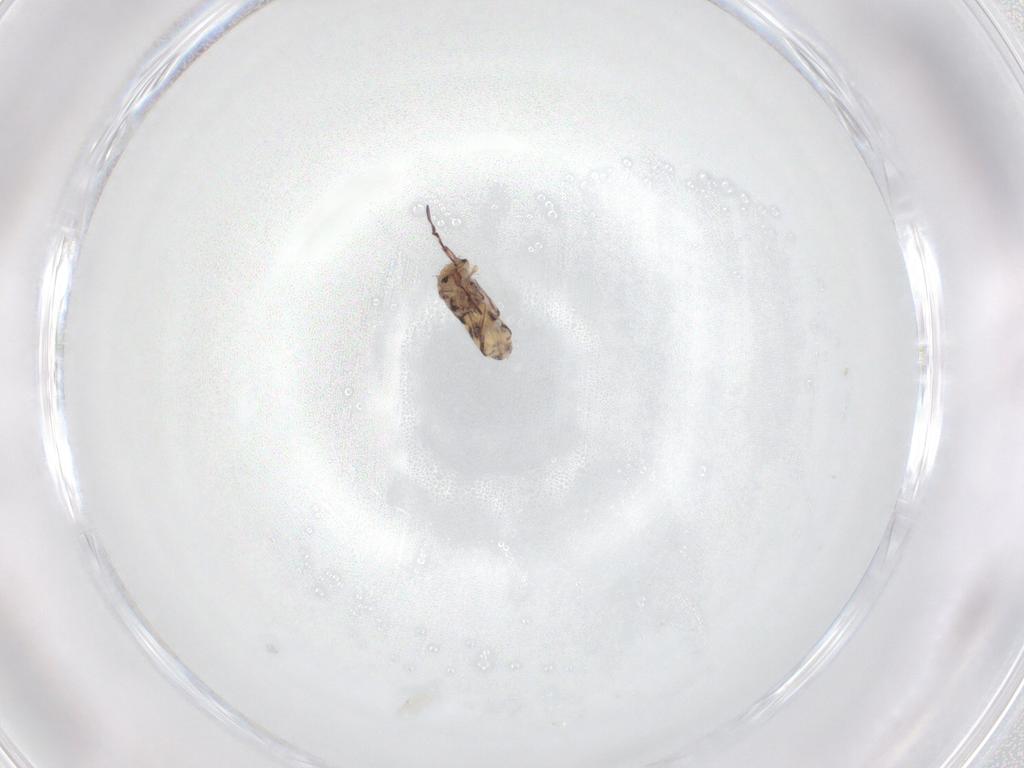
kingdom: Animalia
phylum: Arthropoda
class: Collembola
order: Entomobryomorpha
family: Entomobryidae
